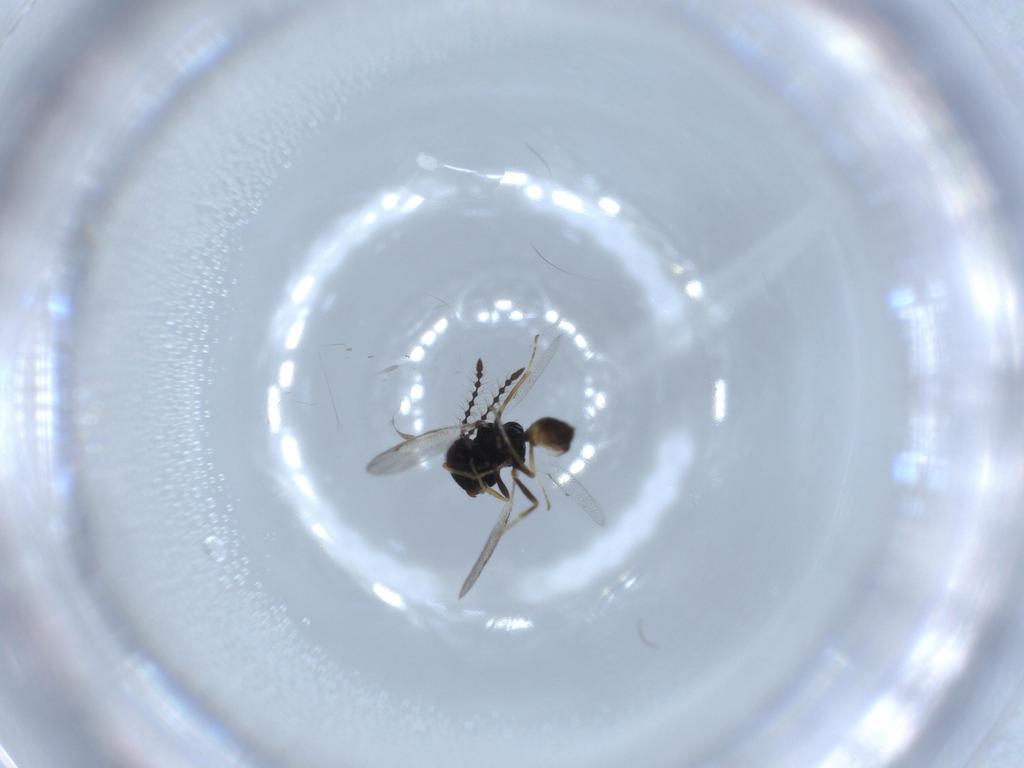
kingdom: Animalia
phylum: Arthropoda
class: Insecta
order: Hymenoptera
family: Pteromalidae
